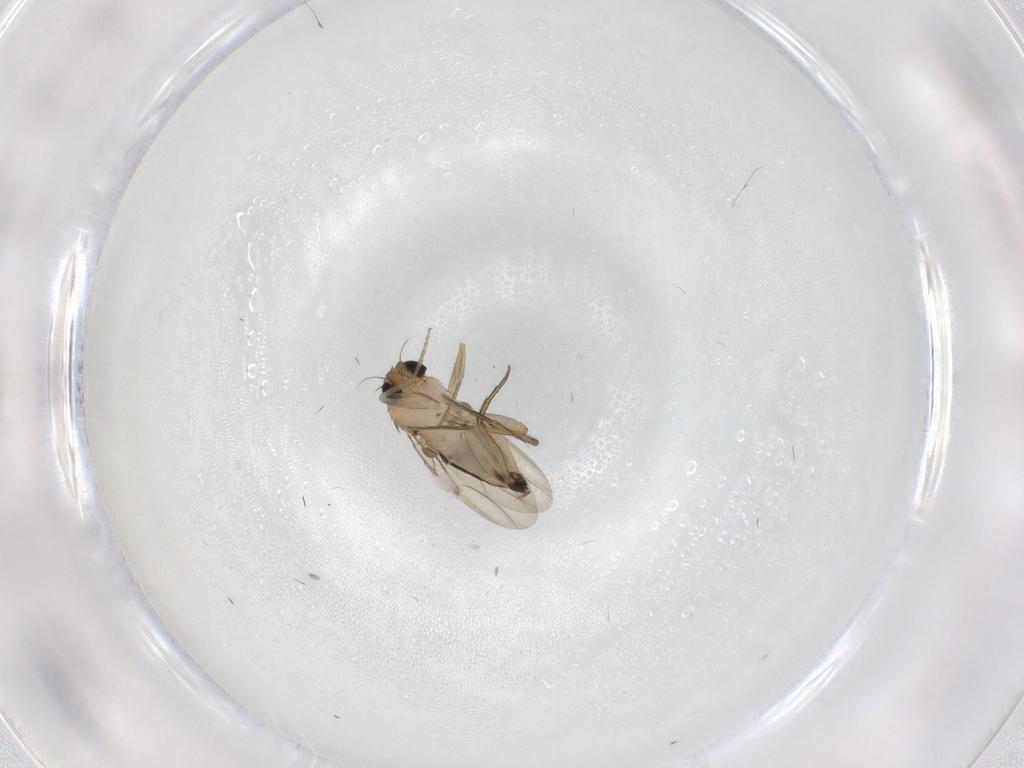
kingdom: Animalia
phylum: Arthropoda
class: Insecta
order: Diptera
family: Phoridae
